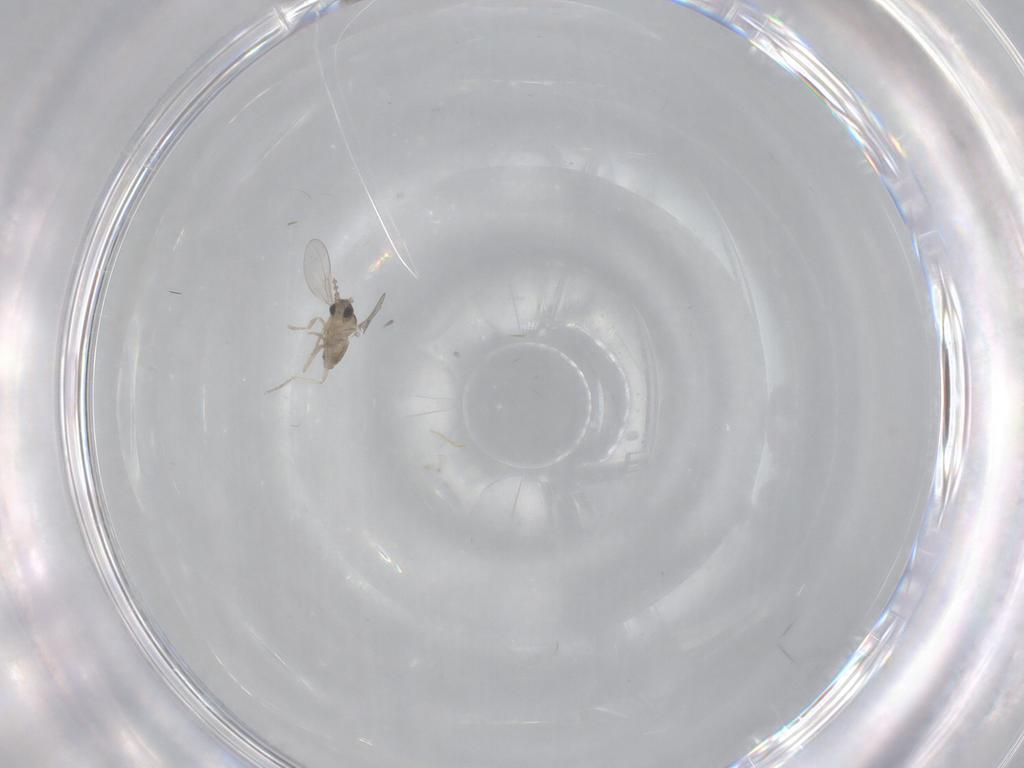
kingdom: Animalia
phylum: Arthropoda
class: Insecta
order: Diptera
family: Cecidomyiidae
